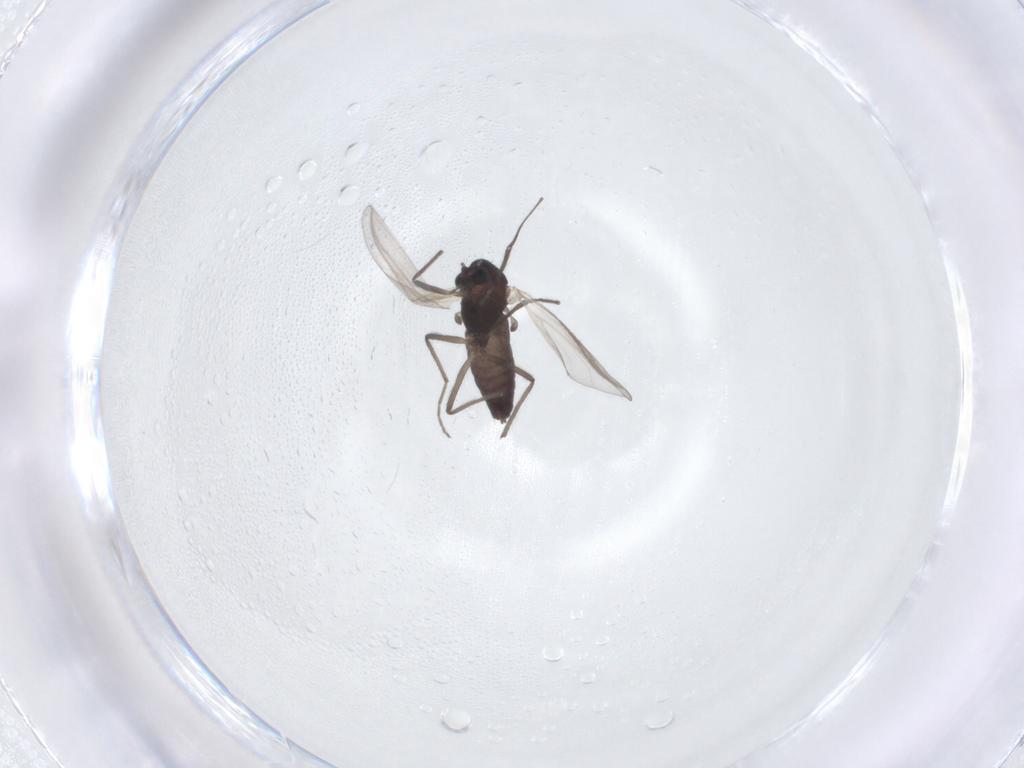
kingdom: Animalia
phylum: Arthropoda
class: Insecta
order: Diptera
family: Chironomidae
